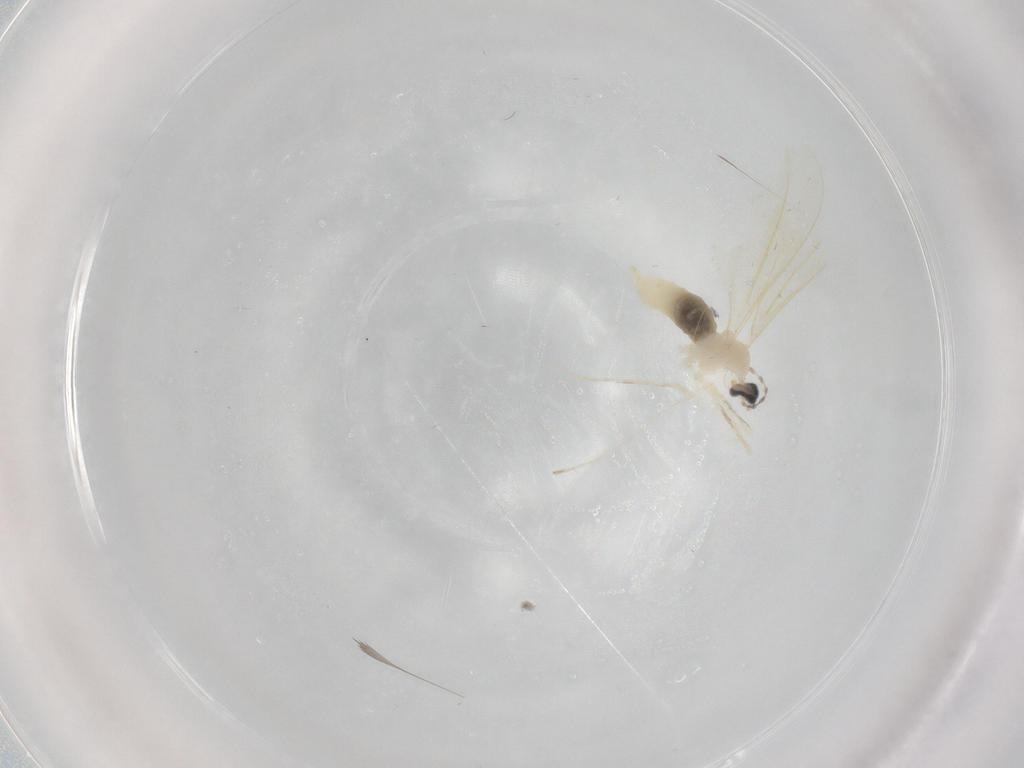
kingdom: Animalia
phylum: Arthropoda
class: Insecta
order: Diptera
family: Cecidomyiidae
